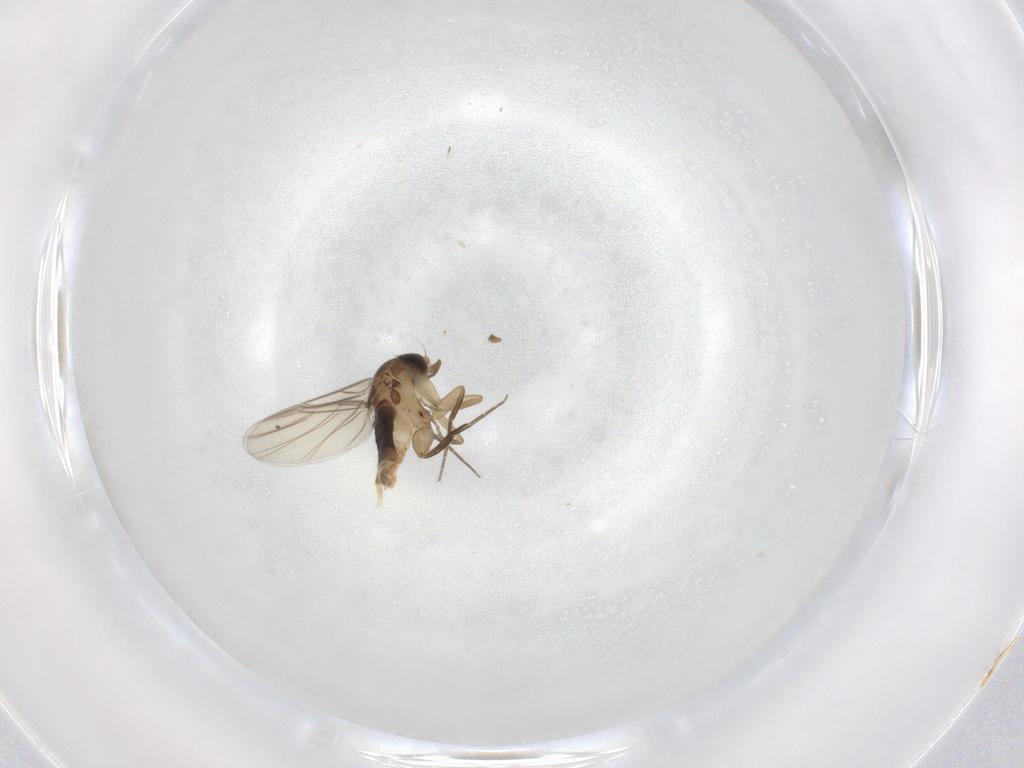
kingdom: Animalia
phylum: Arthropoda
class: Insecta
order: Diptera
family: Phoridae
